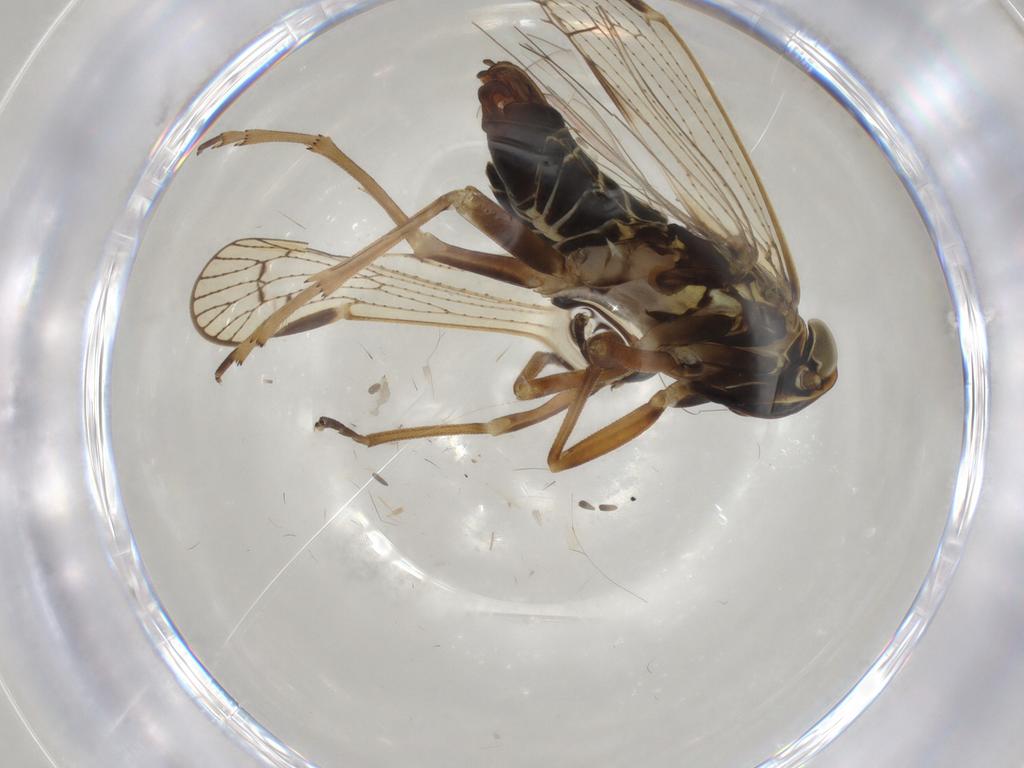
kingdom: Animalia
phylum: Arthropoda
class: Insecta
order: Hemiptera
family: Cixiidae
